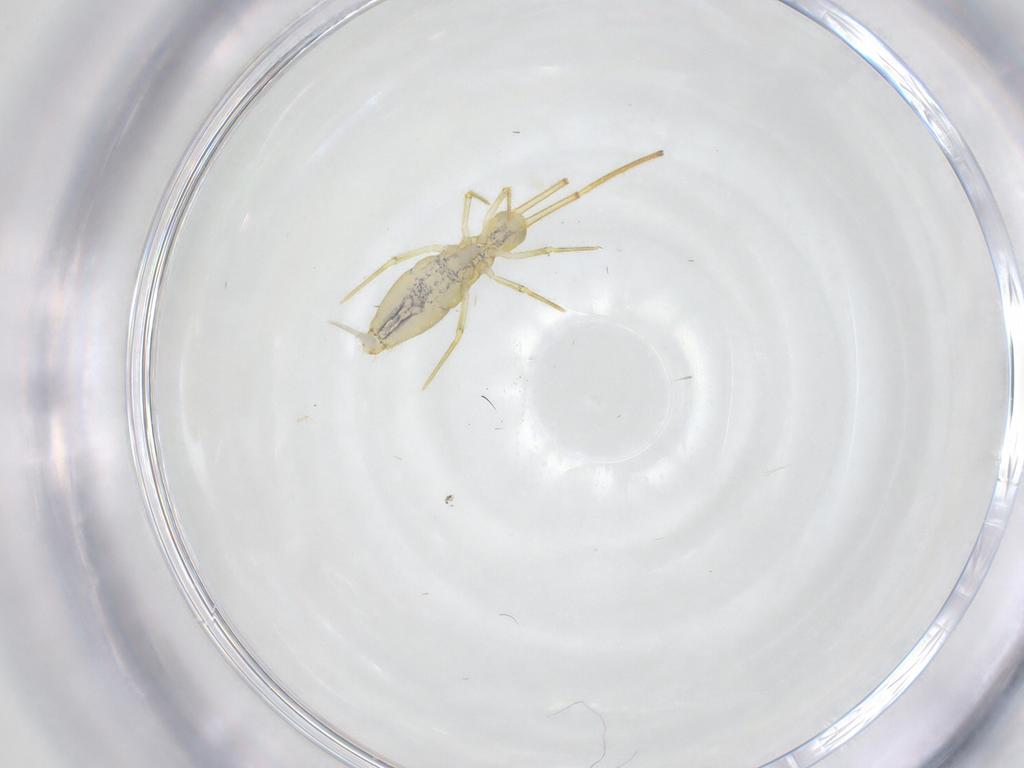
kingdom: Animalia
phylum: Arthropoda
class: Collembola
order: Entomobryomorpha
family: Entomobryidae
